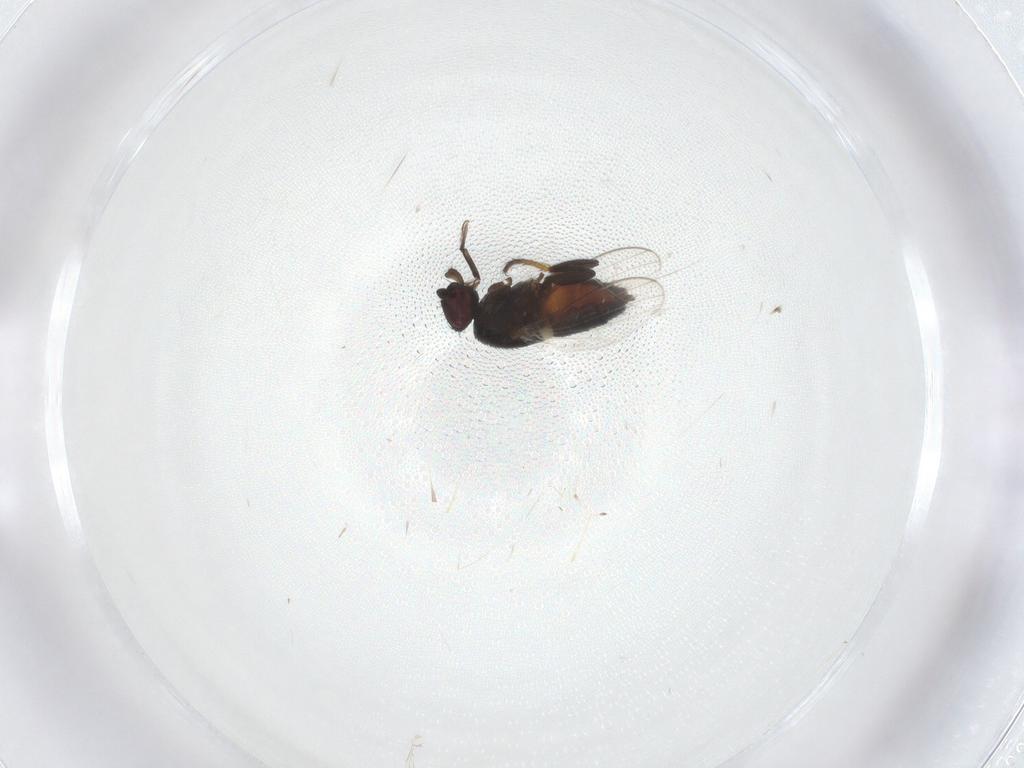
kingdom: Animalia
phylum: Arthropoda
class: Insecta
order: Diptera
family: Milichiidae
